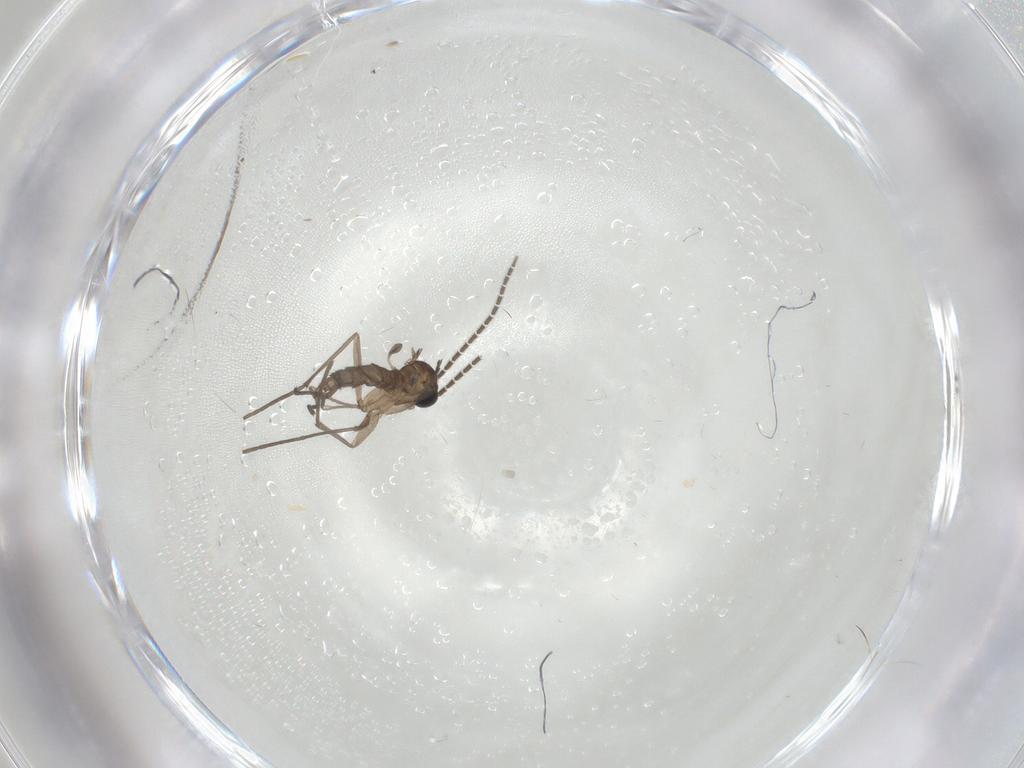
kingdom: Animalia
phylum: Arthropoda
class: Insecta
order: Diptera
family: Sciaridae
